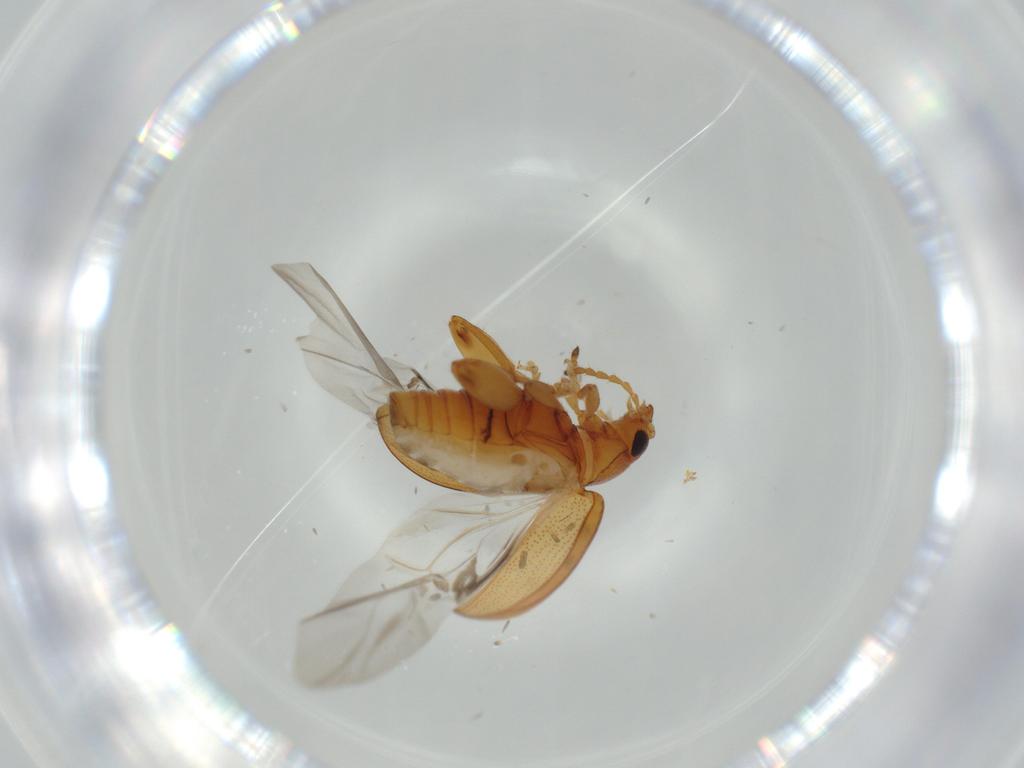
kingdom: Animalia
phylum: Arthropoda
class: Insecta
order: Coleoptera
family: Chrysomelidae
